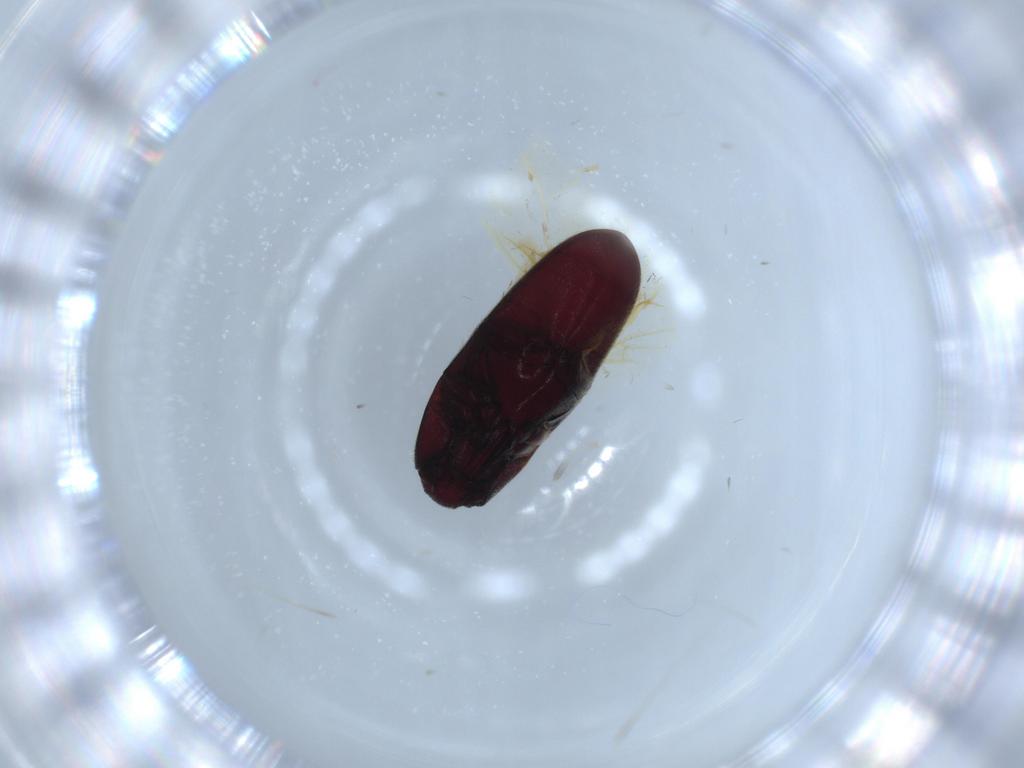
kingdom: Animalia
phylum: Arthropoda
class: Insecta
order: Coleoptera
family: Throscidae
